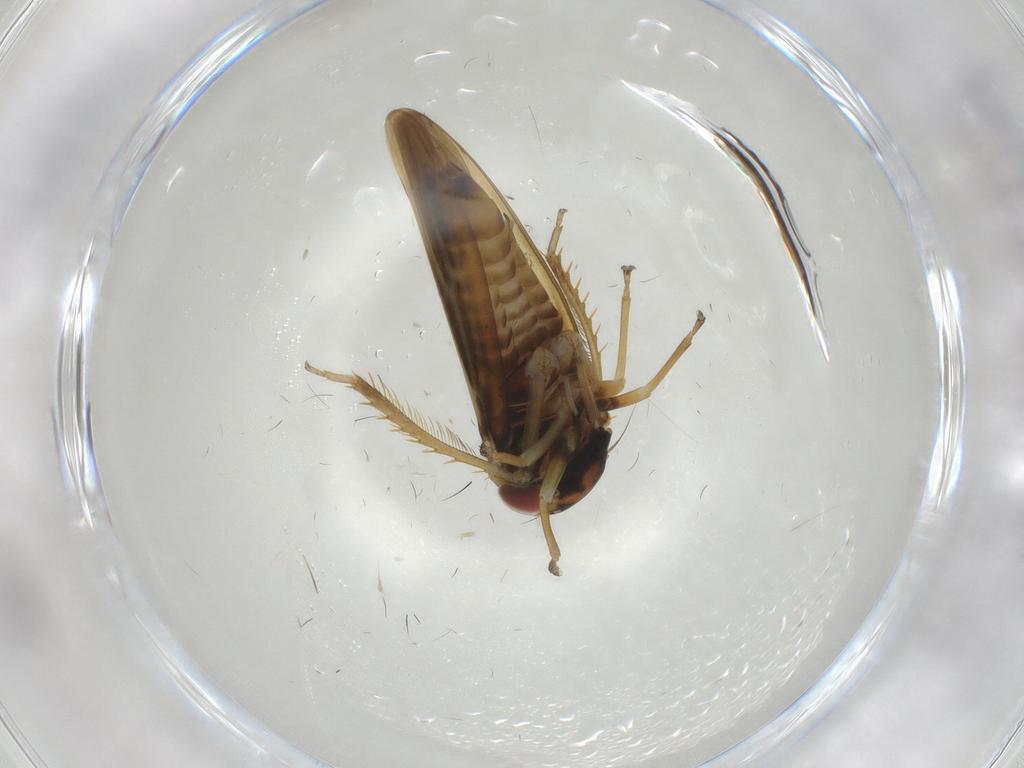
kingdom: Animalia
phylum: Arthropoda
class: Insecta
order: Hemiptera
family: Cicadellidae
